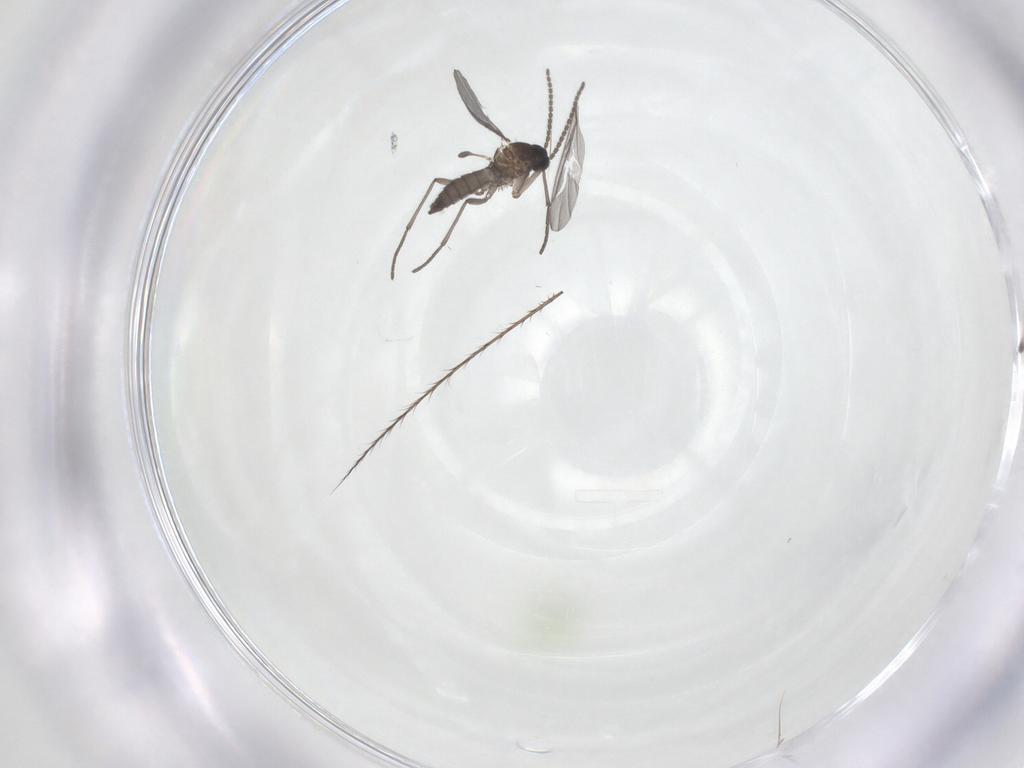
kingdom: Animalia
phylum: Arthropoda
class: Insecta
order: Diptera
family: Sciaridae
